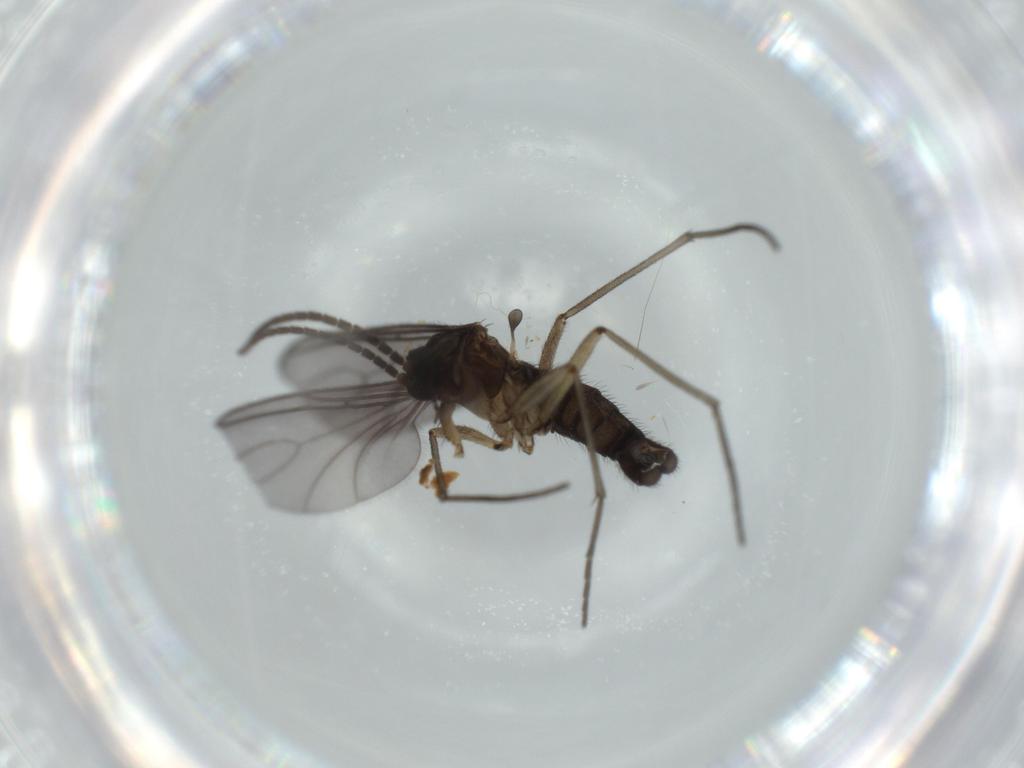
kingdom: Animalia
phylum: Arthropoda
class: Insecta
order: Diptera
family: Sciaridae
